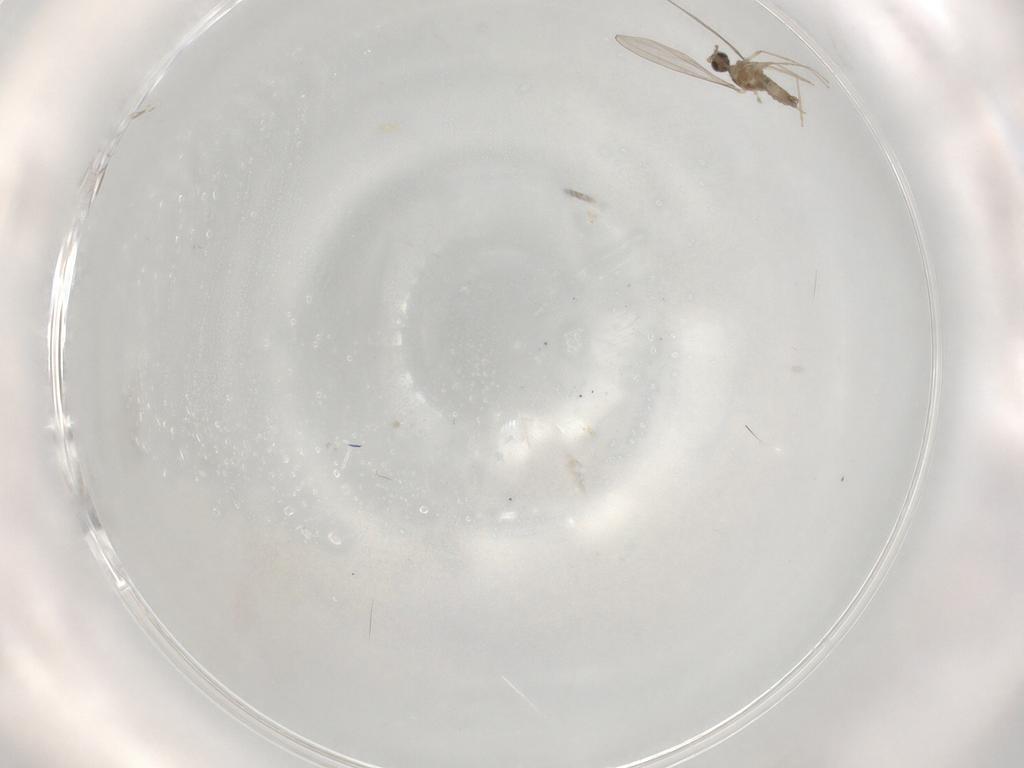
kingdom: Animalia
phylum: Arthropoda
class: Insecta
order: Diptera
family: Cecidomyiidae
